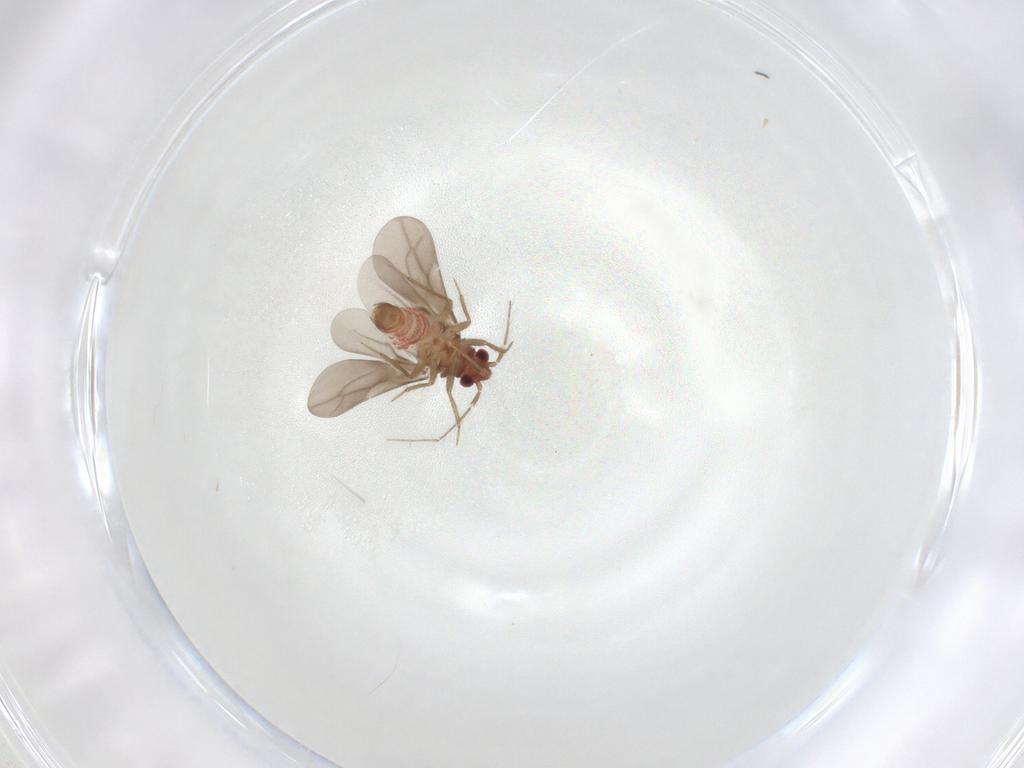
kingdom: Animalia
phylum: Arthropoda
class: Insecta
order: Hemiptera
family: Ceratocombidae
